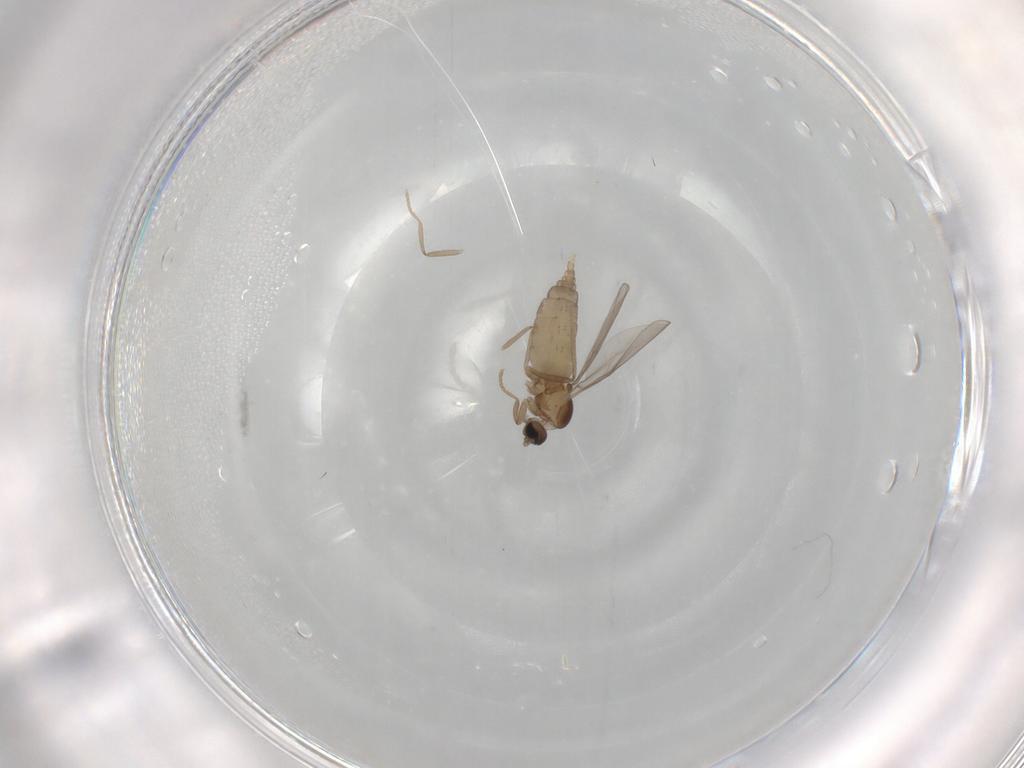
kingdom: Animalia
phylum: Arthropoda
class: Insecta
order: Diptera
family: Cecidomyiidae
